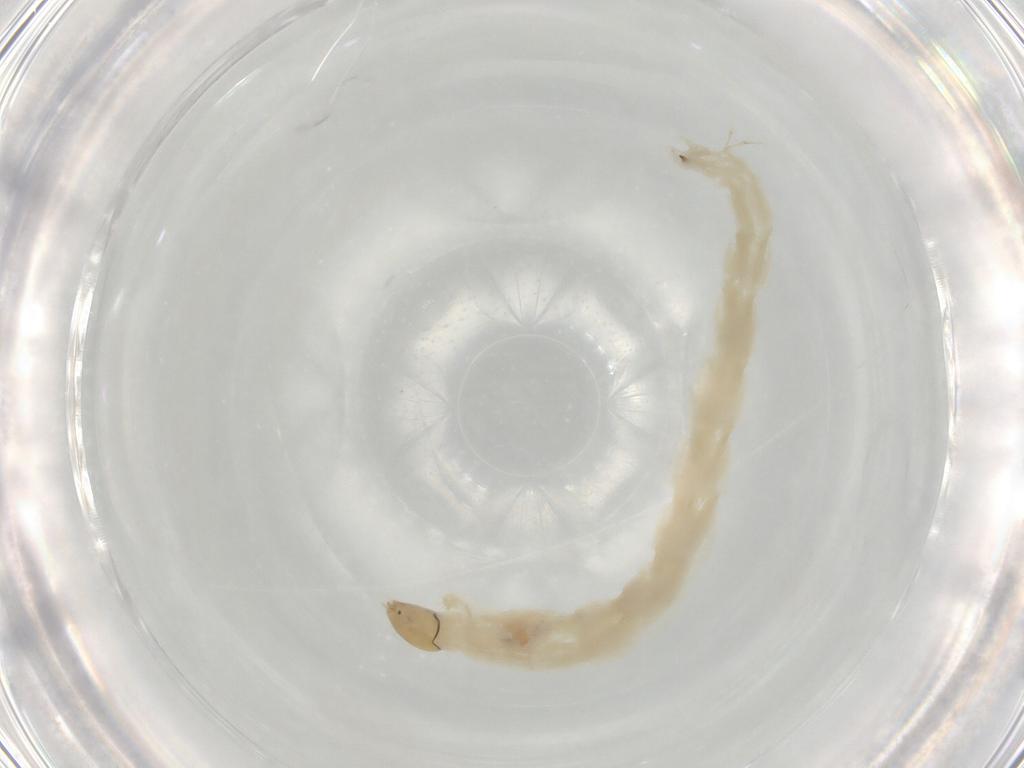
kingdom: Animalia
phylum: Arthropoda
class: Insecta
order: Diptera
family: Chironomidae
